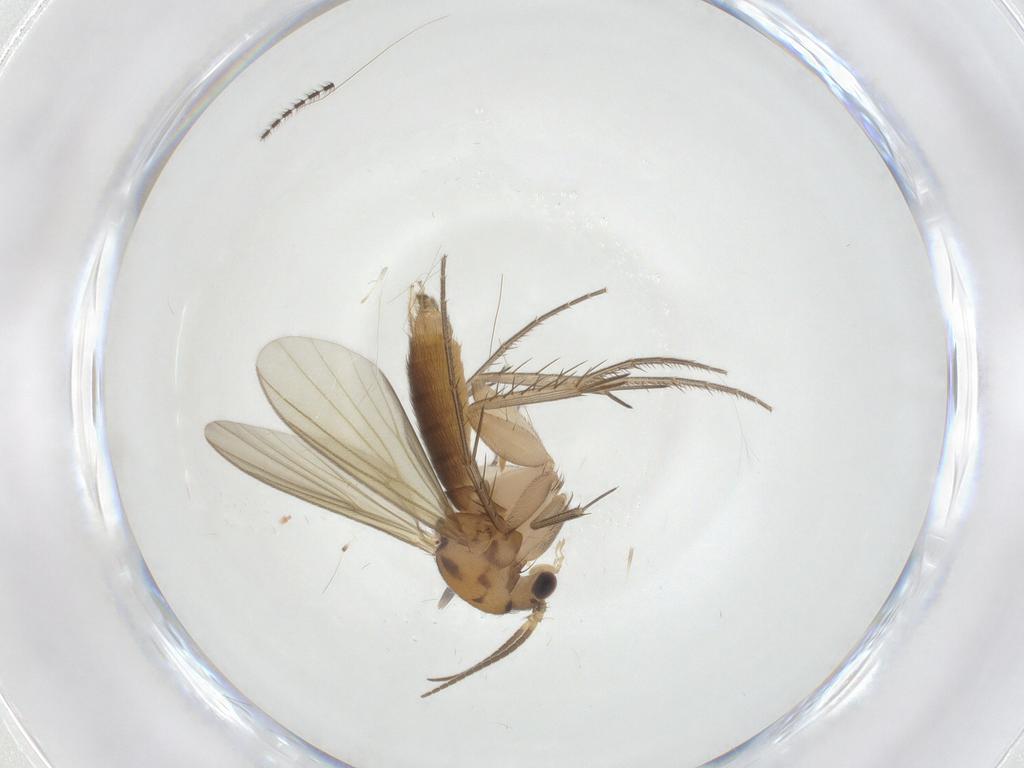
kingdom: Animalia
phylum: Arthropoda
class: Insecta
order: Diptera
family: Mycetophilidae
